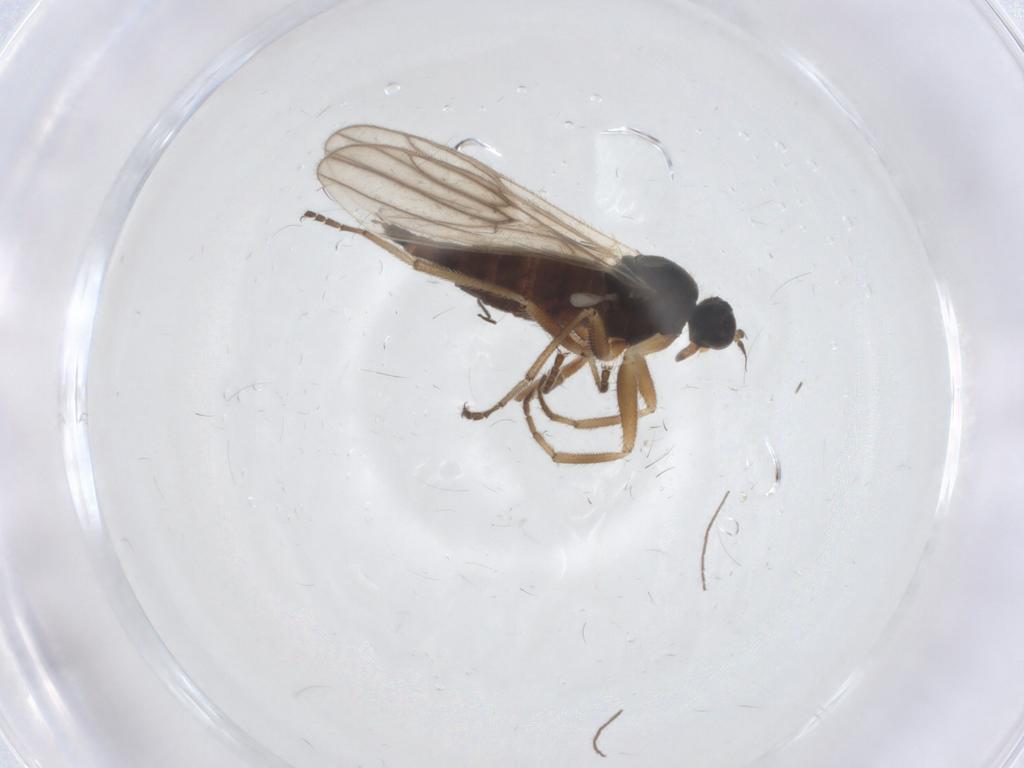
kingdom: Animalia
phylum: Arthropoda
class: Insecta
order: Diptera
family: Hybotidae
